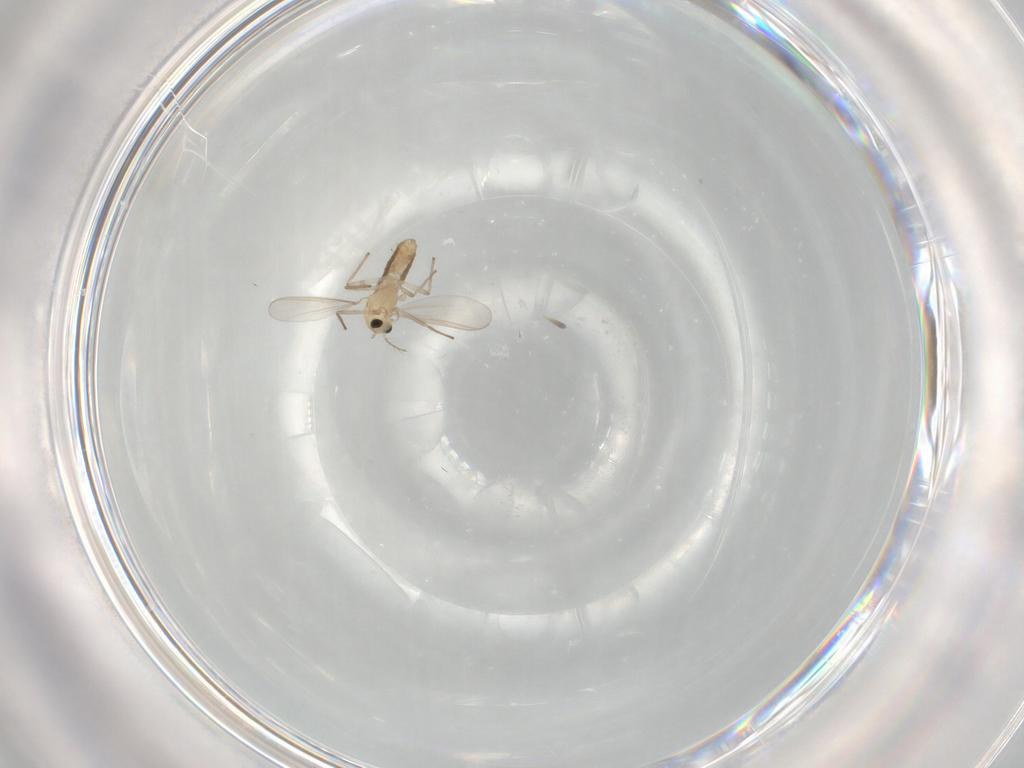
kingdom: Animalia
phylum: Arthropoda
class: Insecta
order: Diptera
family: Chironomidae
